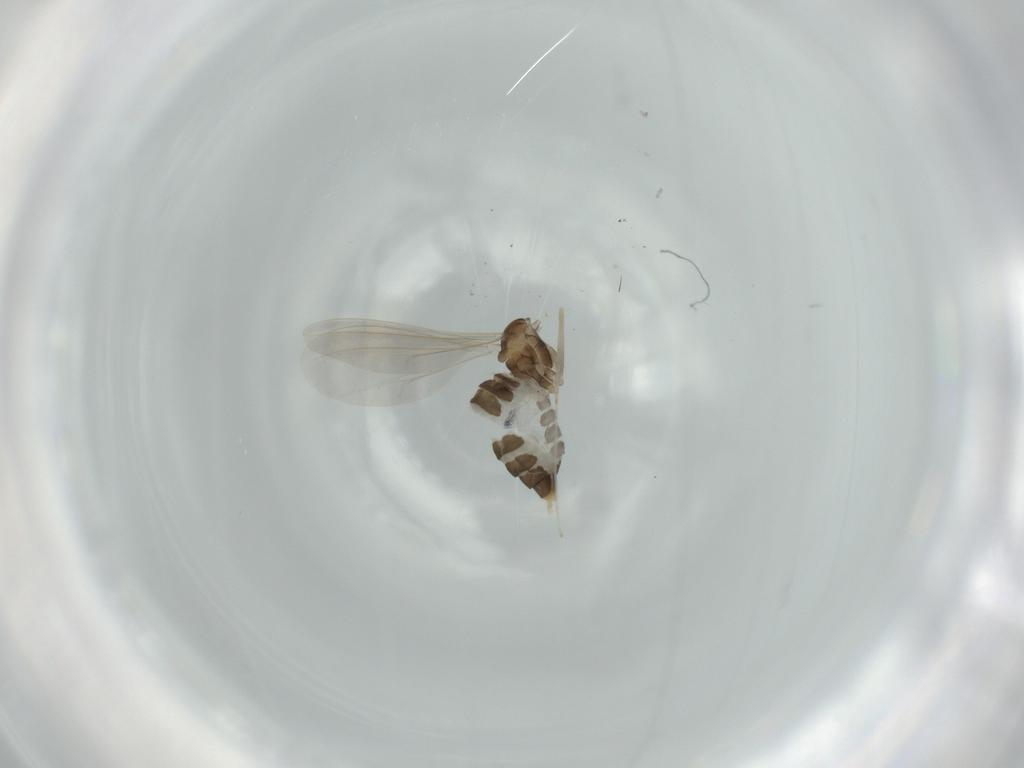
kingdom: Animalia
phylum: Arthropoda
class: Insecta
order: Diptera
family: Cecidomyiidae
